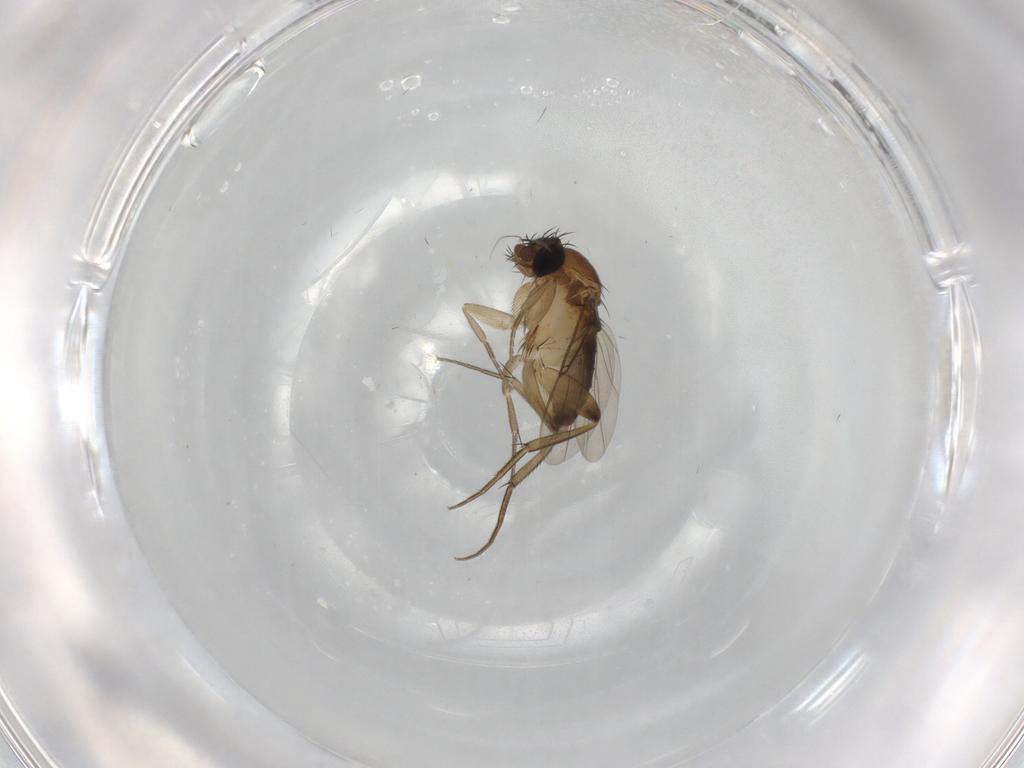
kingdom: Animalia
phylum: Arthropoda
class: Insecta
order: Diptera
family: Phoridae
